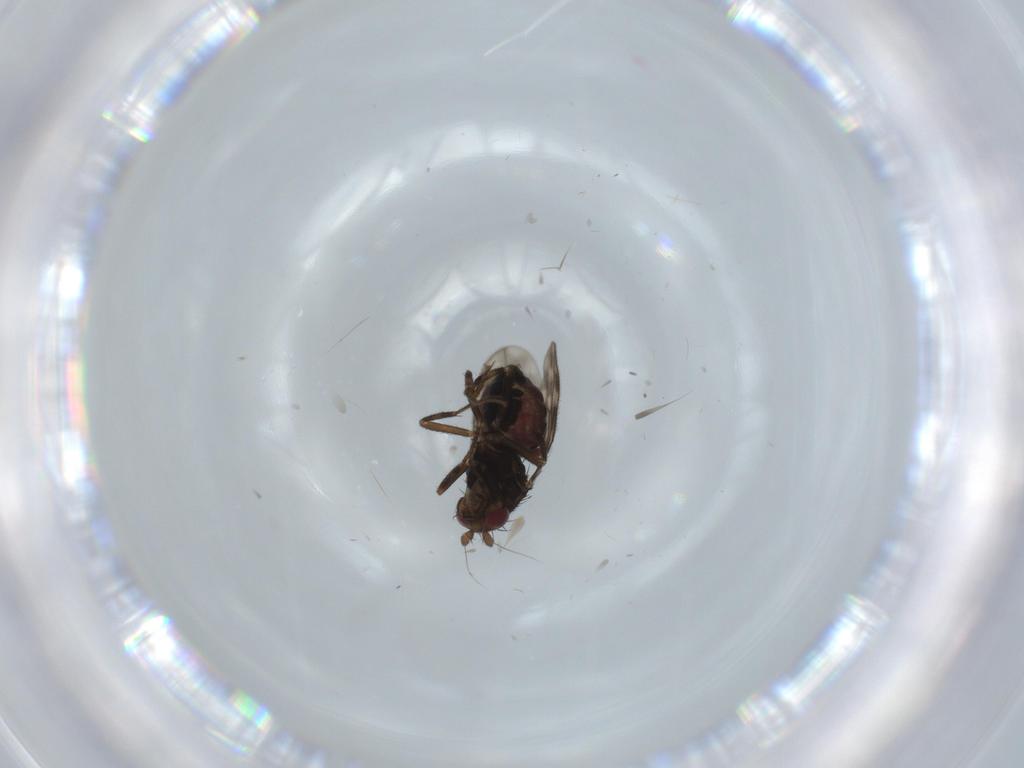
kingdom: Animalia
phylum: Arthropoda
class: Insecta
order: Diptera
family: Sphaeroceridae
